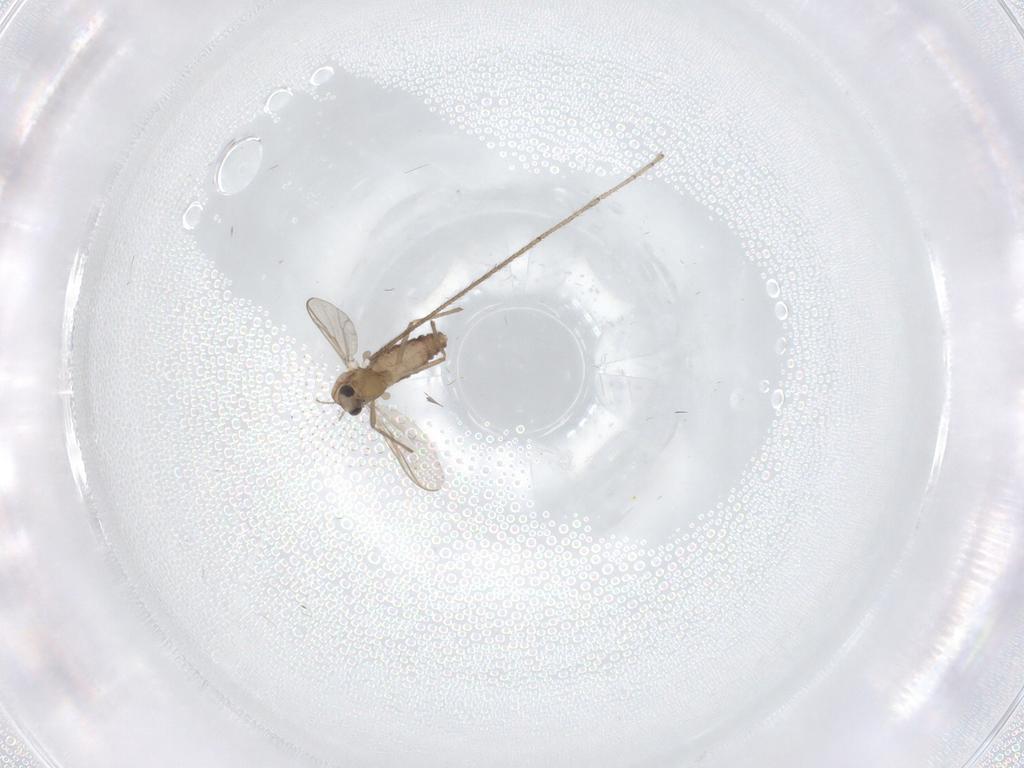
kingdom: Animalia
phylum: Arthropoda
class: Insecta
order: Diptera
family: Chironomidae
